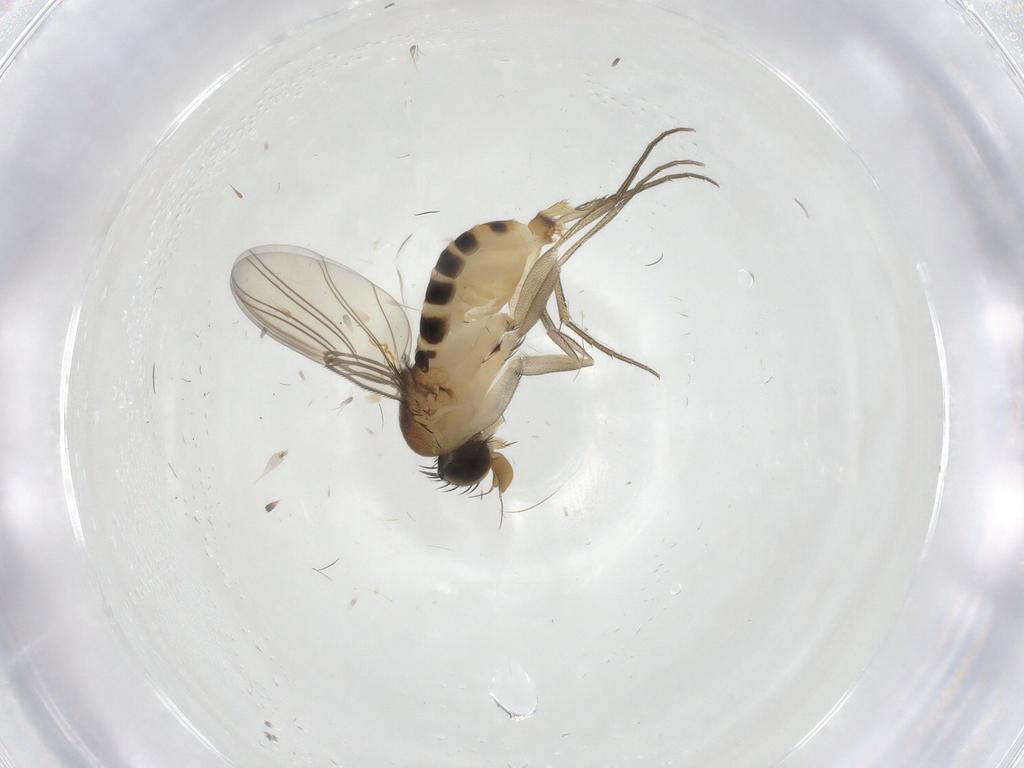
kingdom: Animalia
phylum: Arthropoda
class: Insecta
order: Diptera
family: Phoridae
